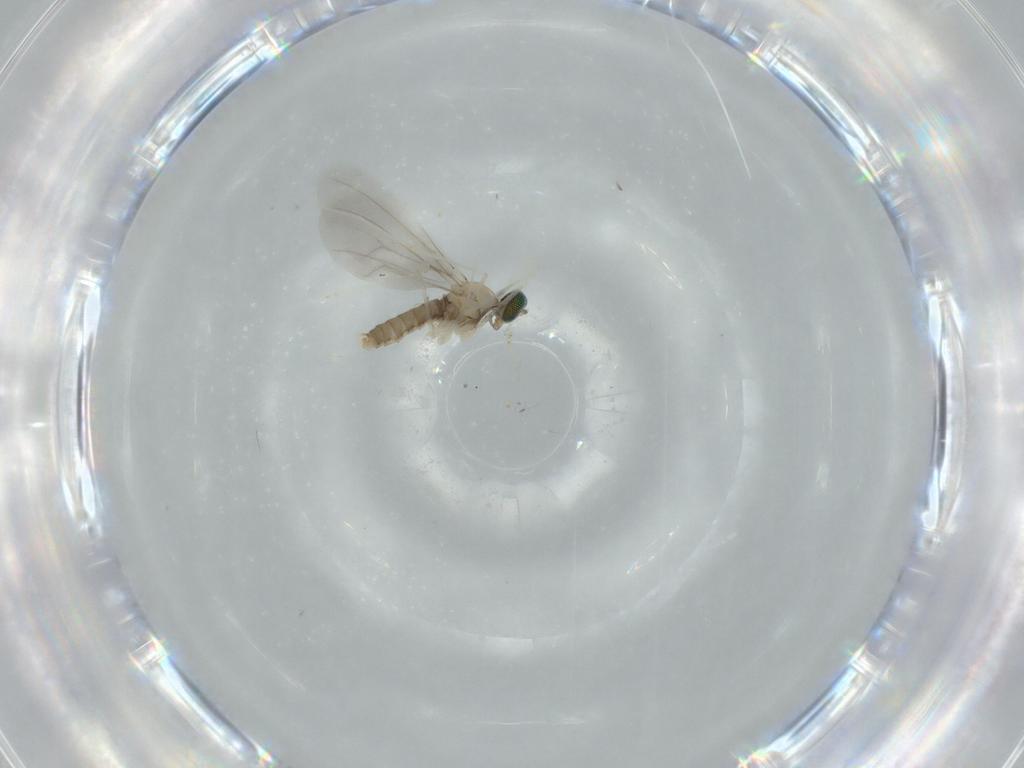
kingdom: Animalia
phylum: Arthropoda
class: Insecta
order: Diptera
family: Cecidomyiidae
